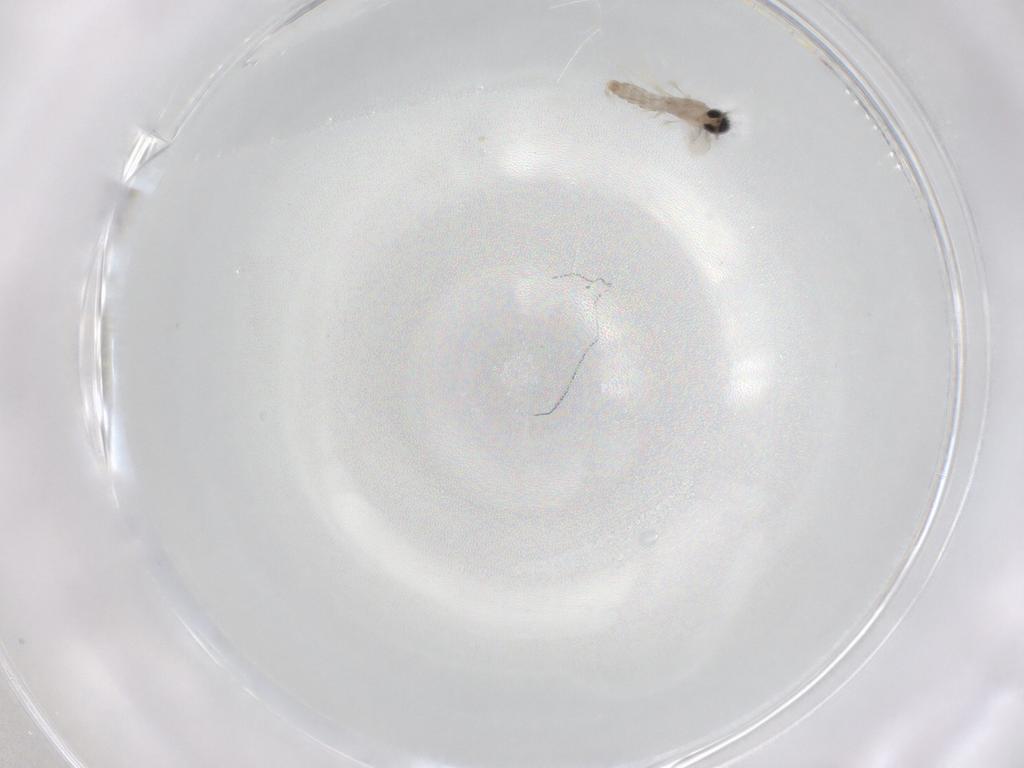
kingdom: Animalia
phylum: Arthropoda
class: Insecta
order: Diptera
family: Cecidomyiidae
